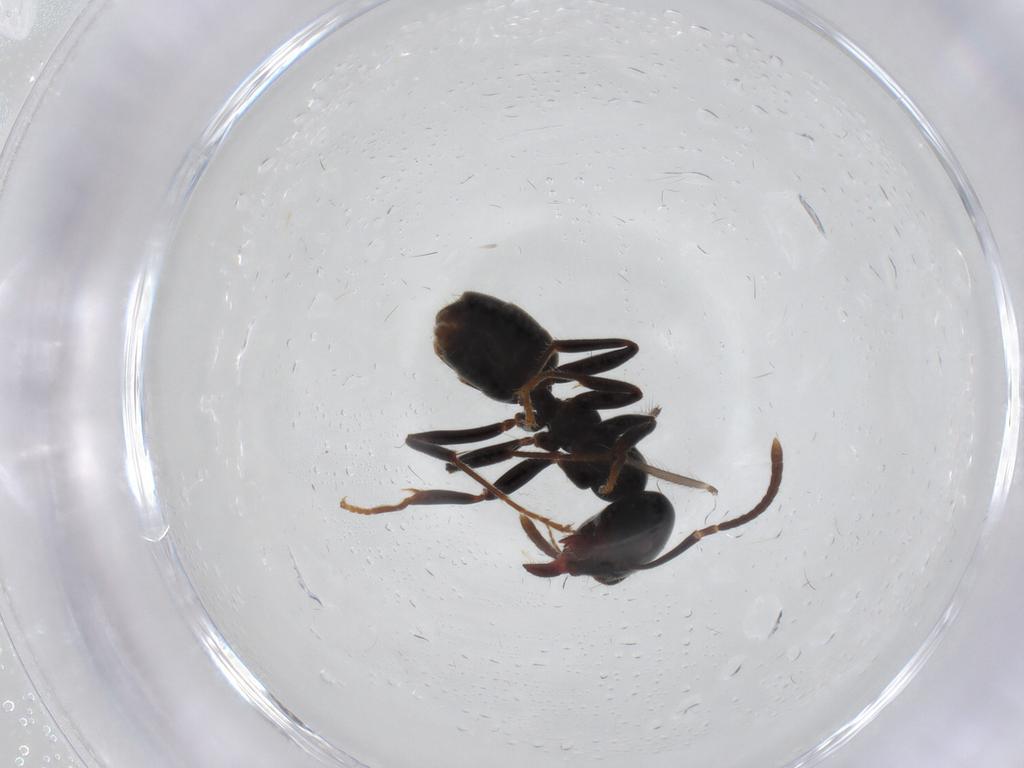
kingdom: Animalia
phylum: Arthropoda
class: Insecta
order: Hymenoptera
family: Formicidae
